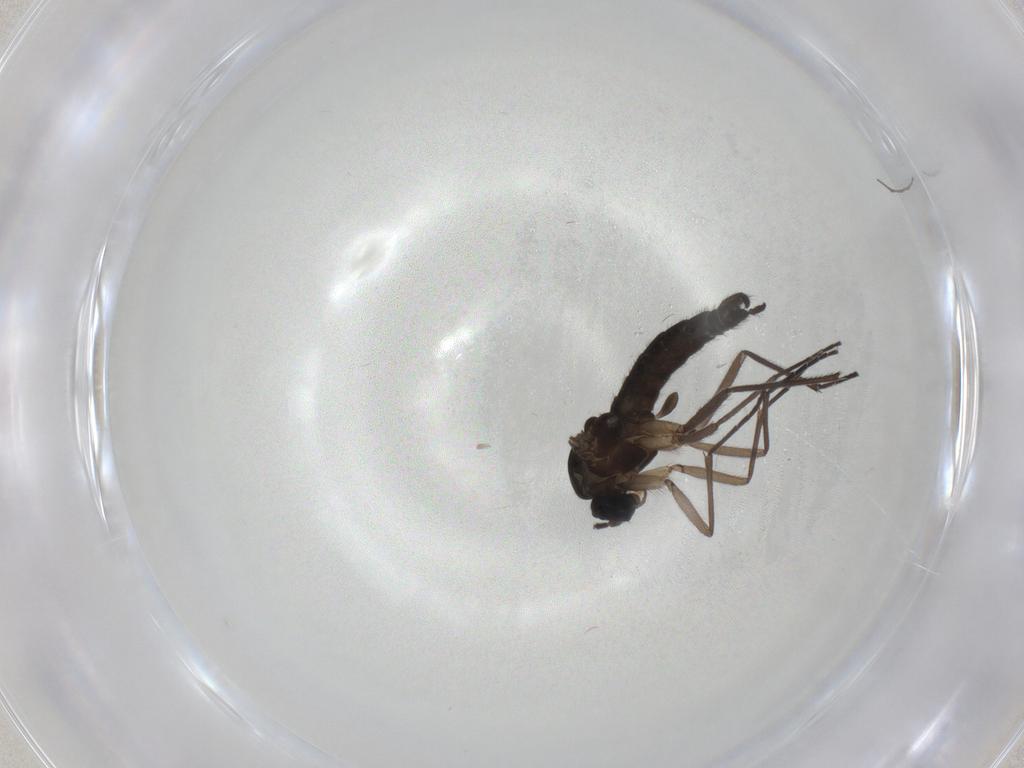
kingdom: Animalia
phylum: Arthropoda
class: Insecta
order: Diptera
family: Sciaridae
